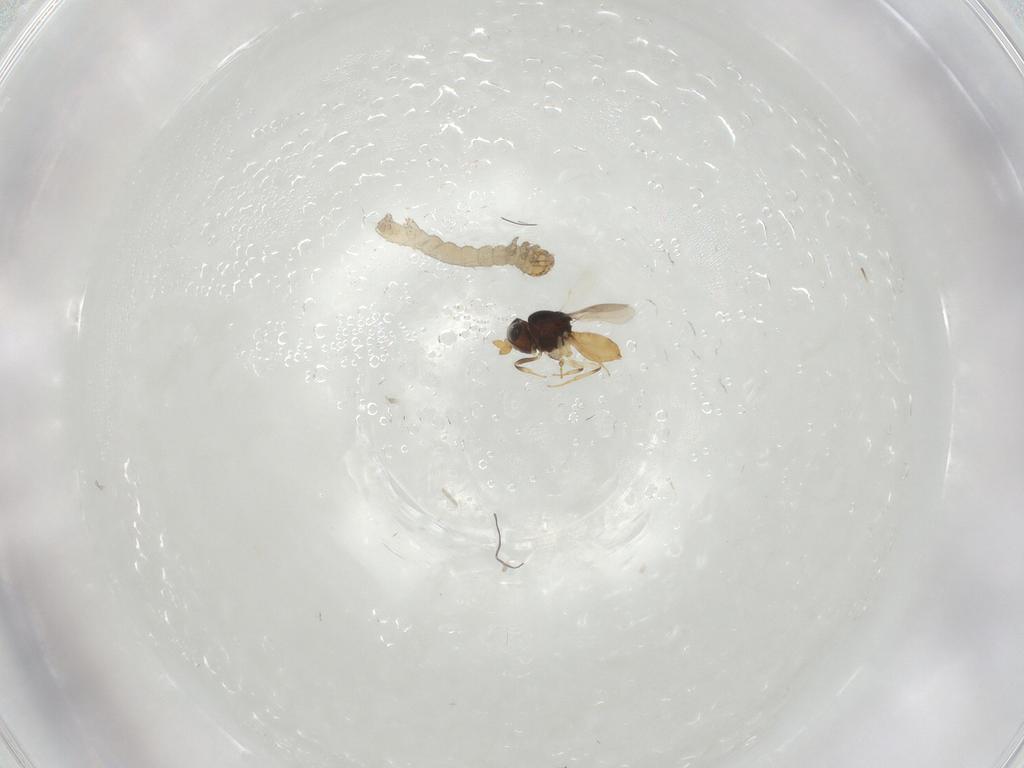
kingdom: Animalia
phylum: Arthropoda
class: Insecta
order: Hymenoptera
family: Scelionidae
